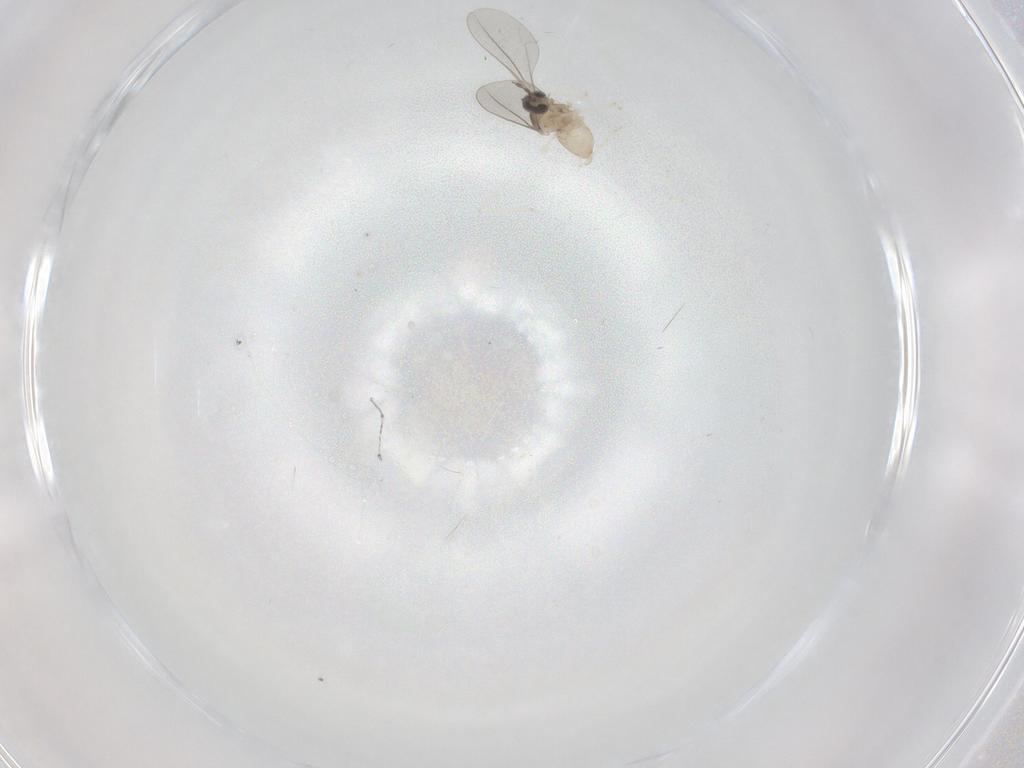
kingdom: Animalia
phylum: Arthropoda
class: Insecta
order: Diptera
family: Cecidomyiidae
